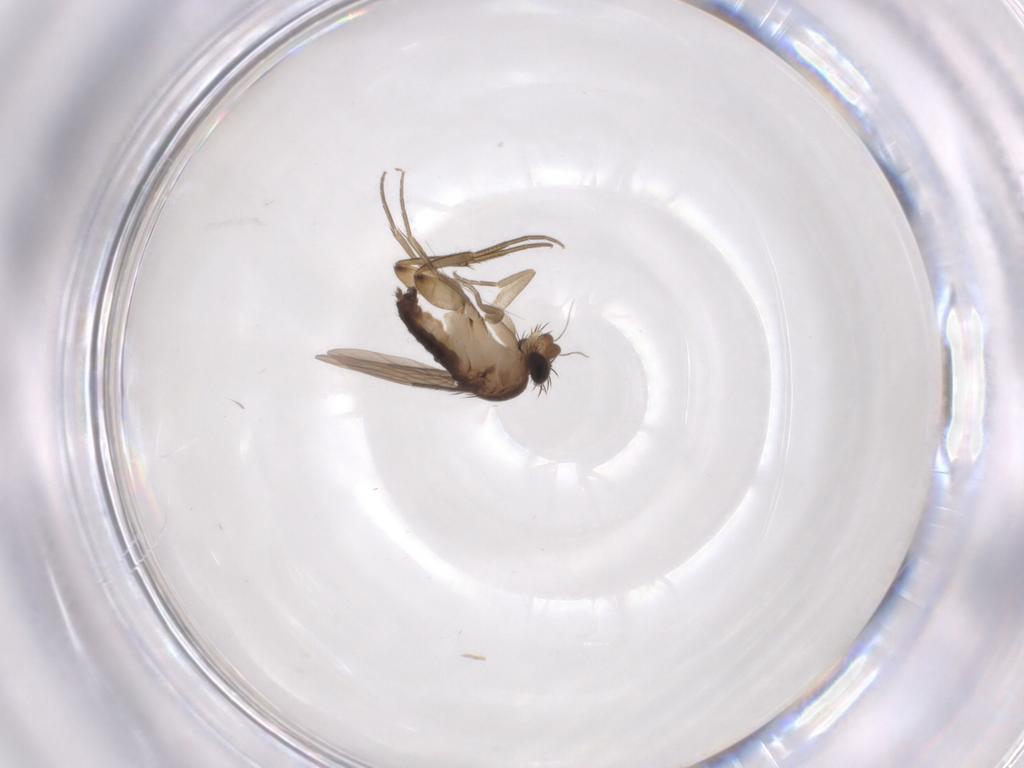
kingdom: Animalia
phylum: Arthropoda
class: Insecta
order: Diptera
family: Phoridae
